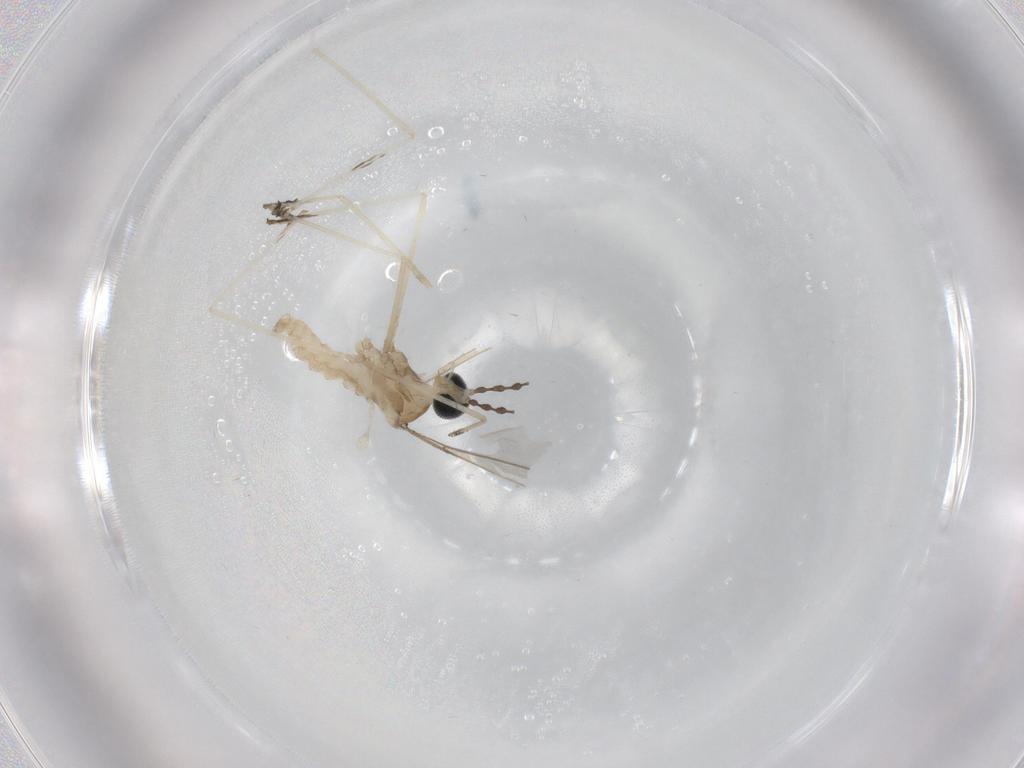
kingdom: Animalia
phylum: Arthropoda
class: Insecta
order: Diptera
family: Cecidomyiidae
